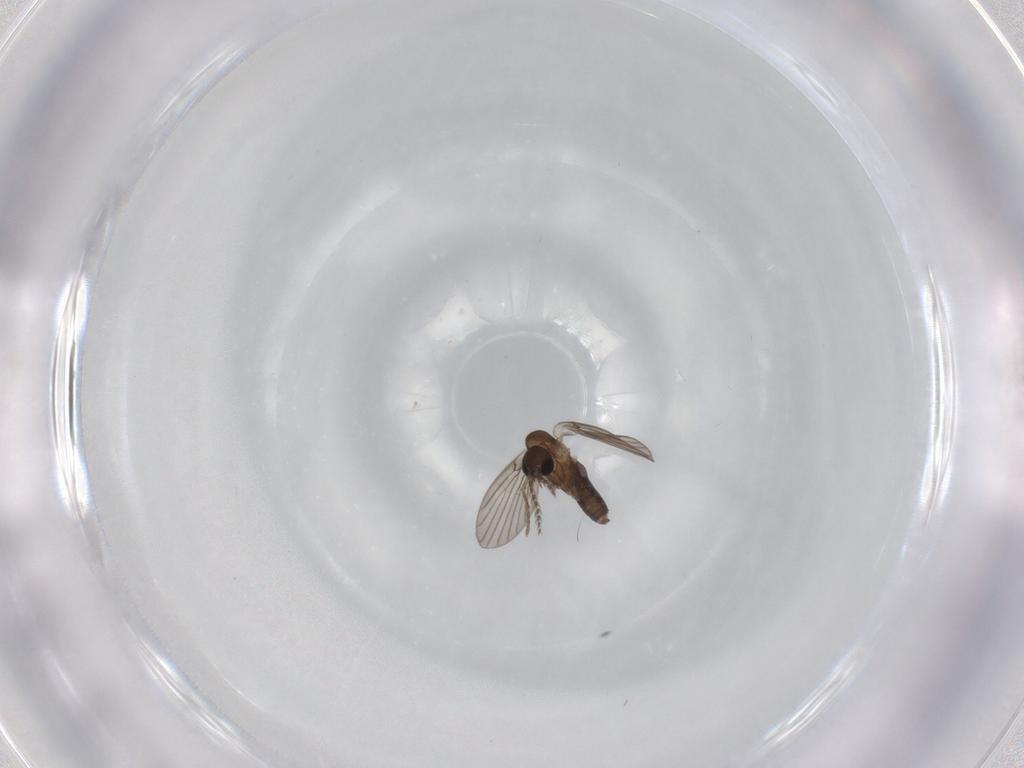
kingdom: Animalia
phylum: Arthropoda
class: Insecta
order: Diptera
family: Cecidomyiidae
